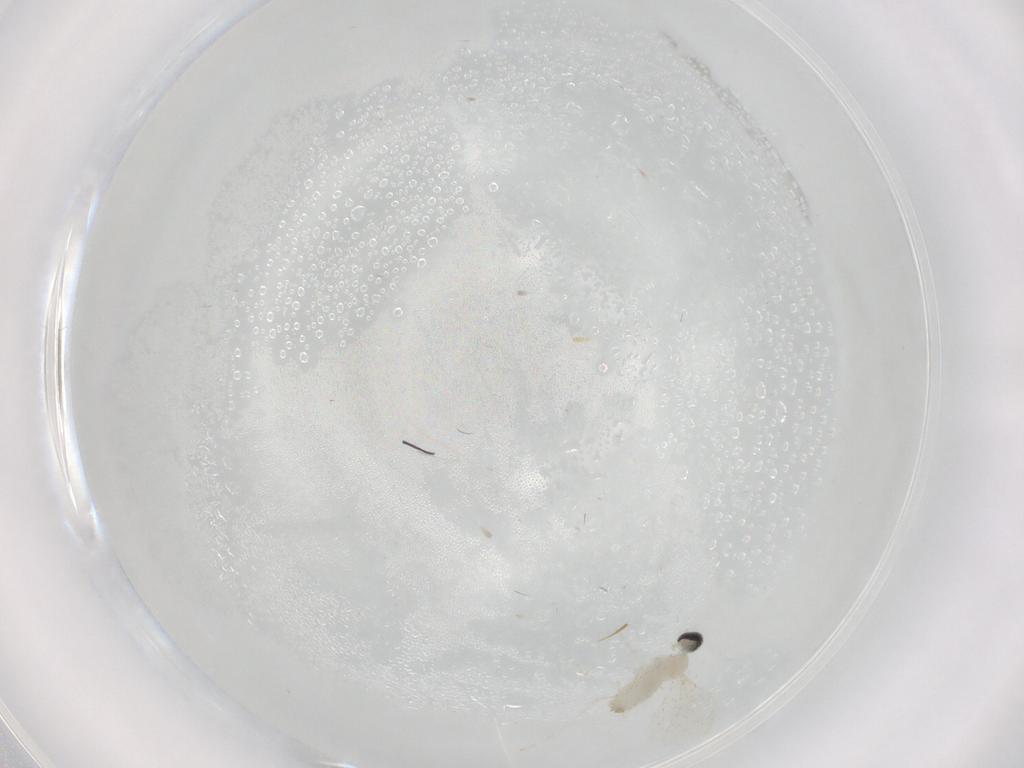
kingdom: Animalia
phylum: Arthropoda
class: Insecta
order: Diptera
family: Cecidomyiidae
